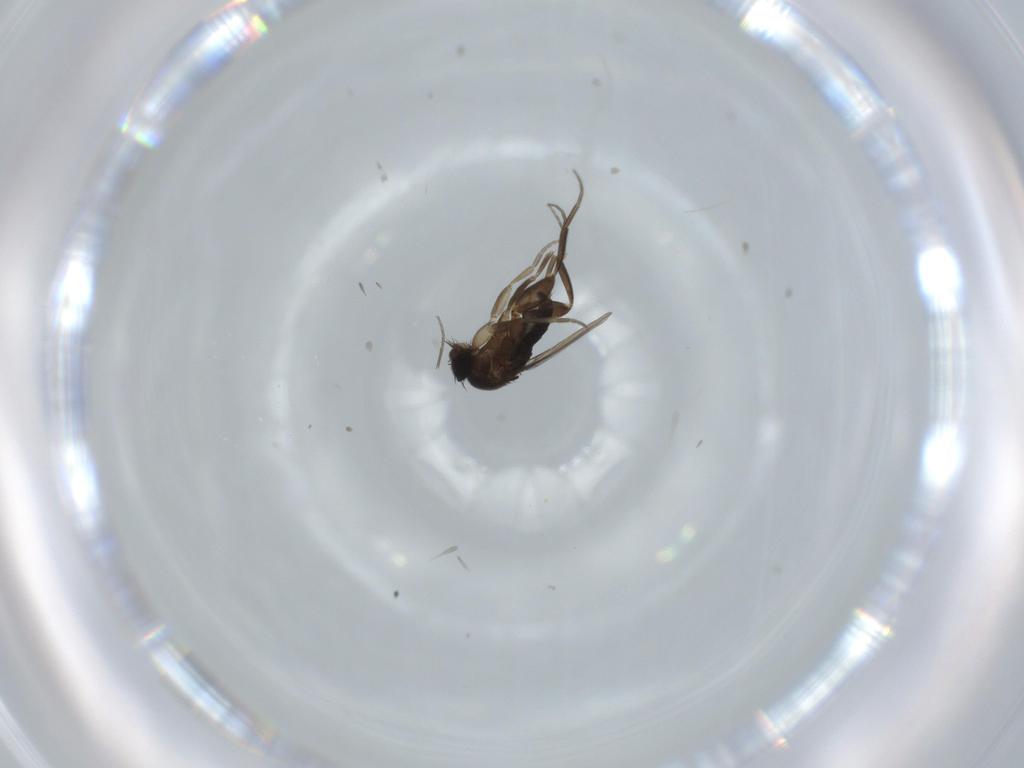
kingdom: Animalia
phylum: Arthropoda
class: Insecta
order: Diptera
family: Phoridae
